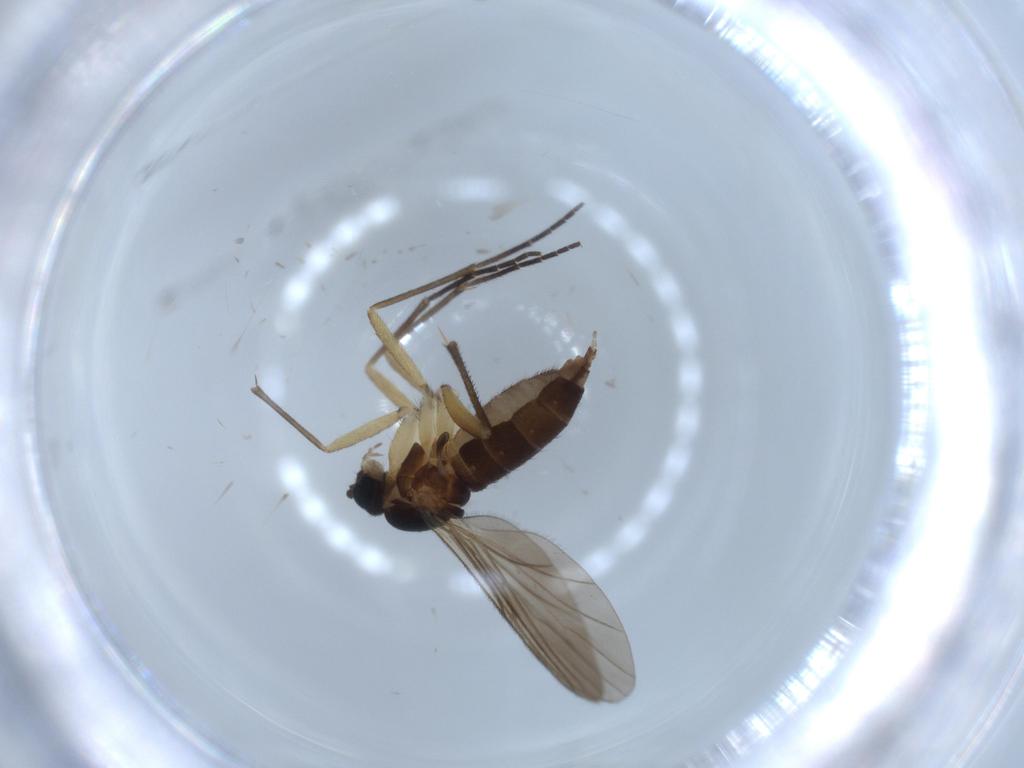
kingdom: Animalia
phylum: Arthropoda
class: Insecta
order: Diptera
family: Sciaridae
